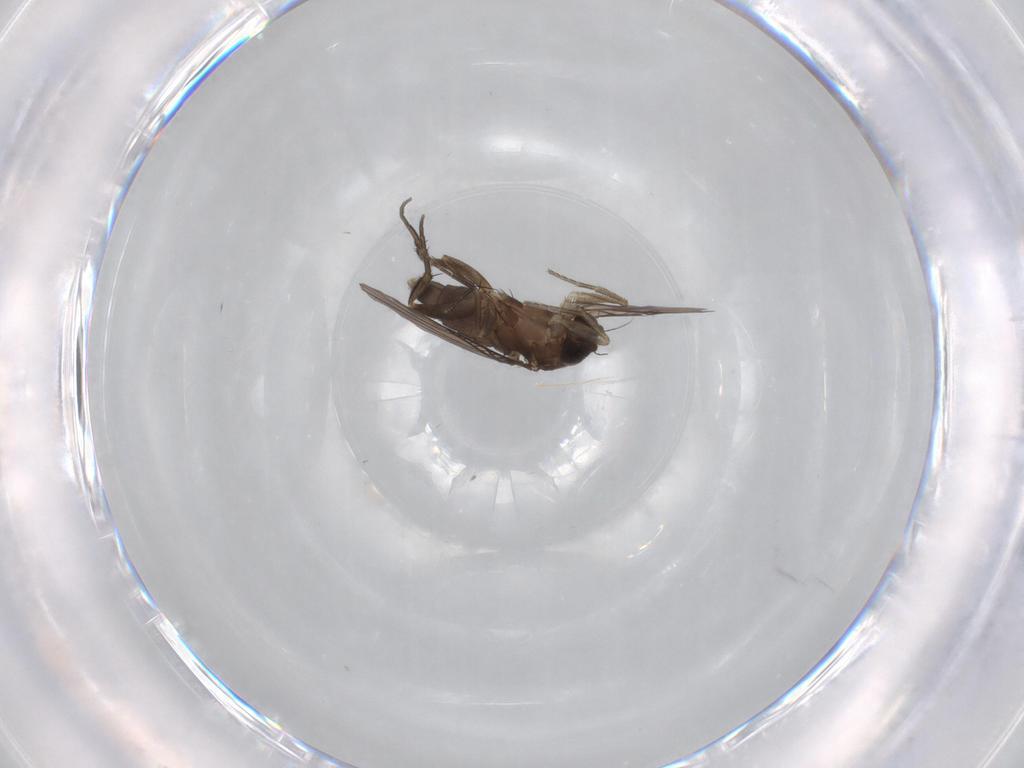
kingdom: Animalia
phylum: Arthropoda
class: Insecta
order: Diptera
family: Phoridae
